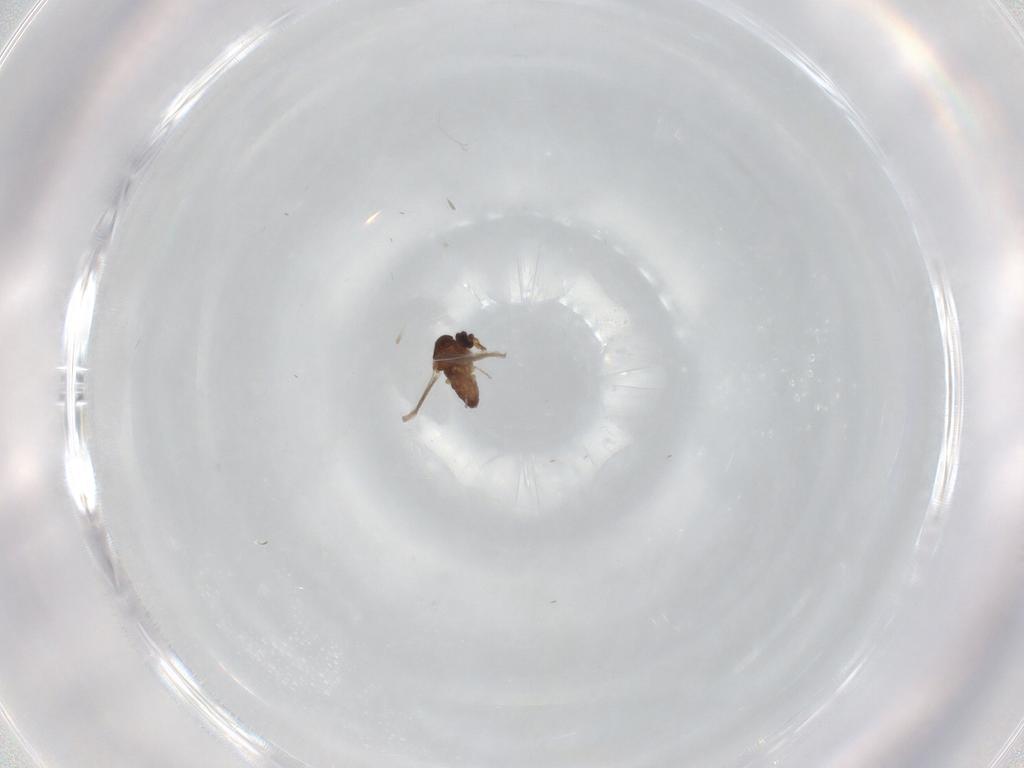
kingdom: Animalia
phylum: Arthropoda
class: Insecta
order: Diptera
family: Ceratopogonidae
